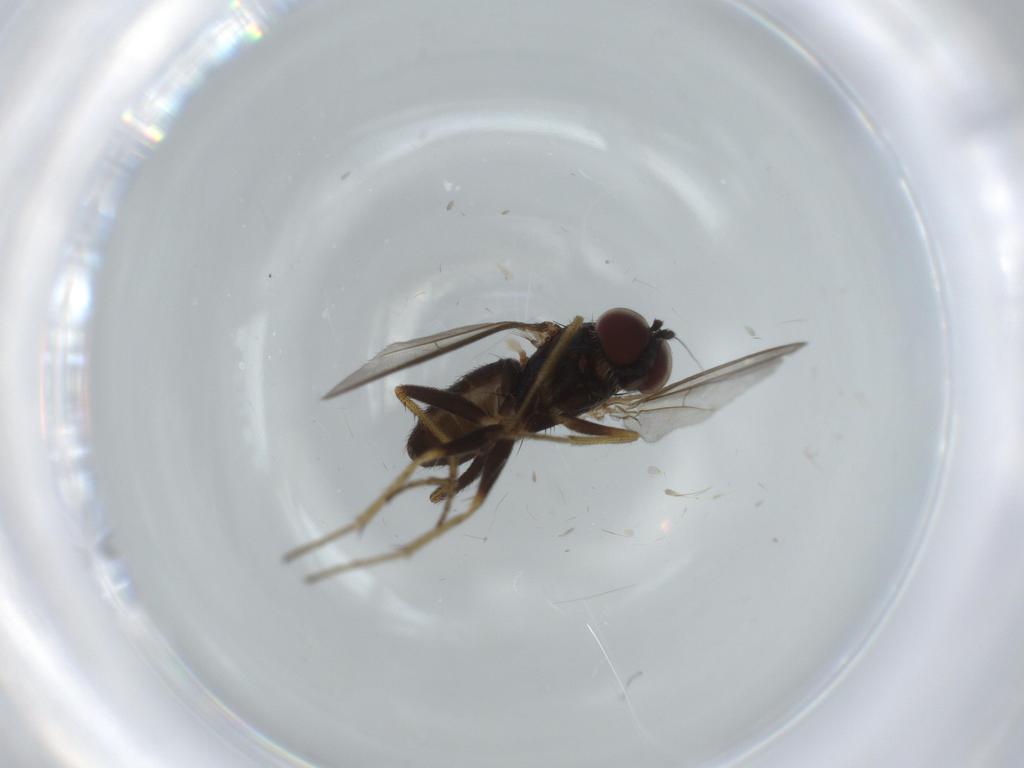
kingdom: Animalia
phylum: Arthropoda
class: Insecta
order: Diptera
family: Dolichopodidae
